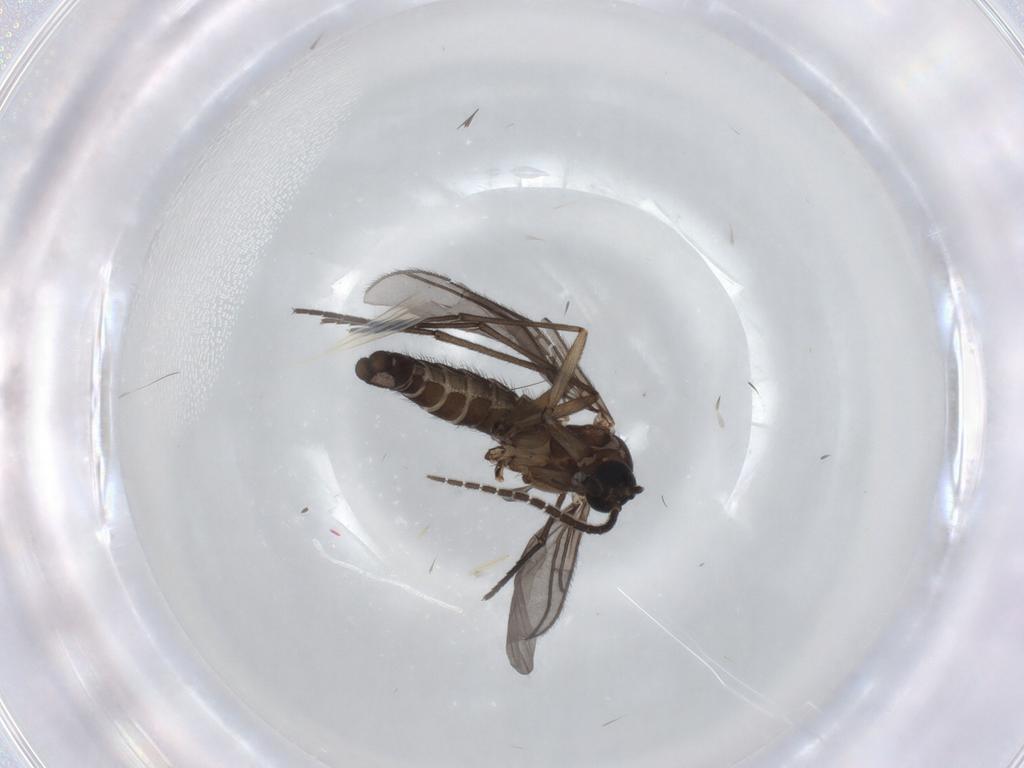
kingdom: Animalia
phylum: Arthropoda
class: Insecta
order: Diptera
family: Sciaridae
